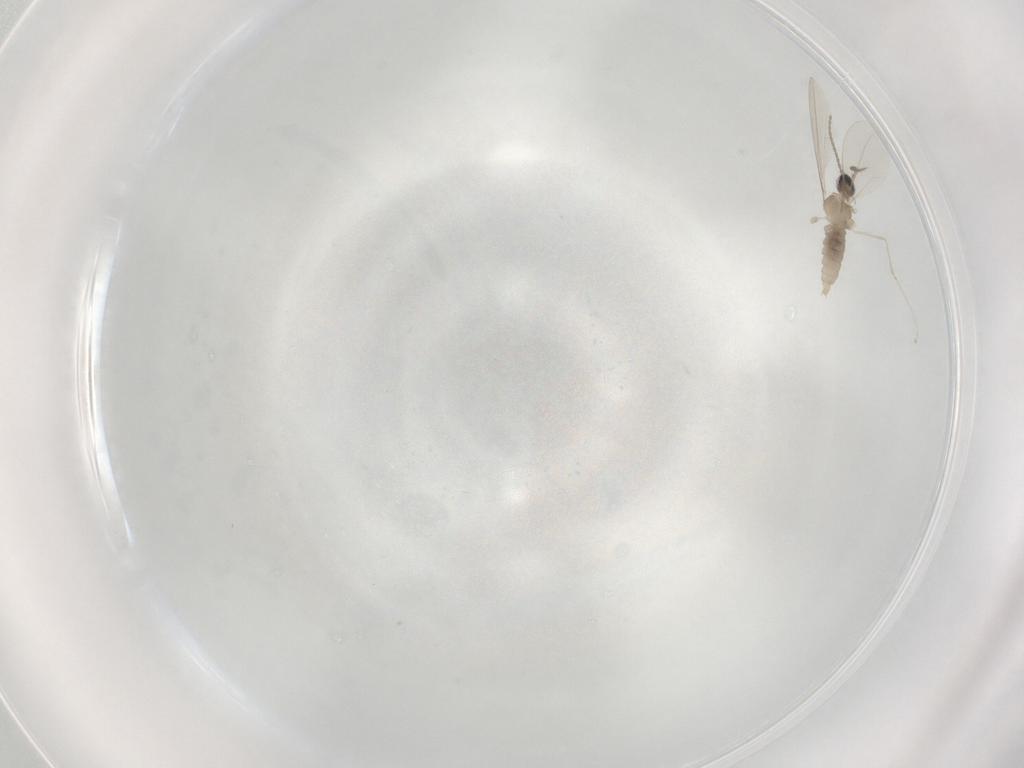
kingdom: Animalia
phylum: Arthropoda
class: Insecta
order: Diptera
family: Cecidomyiidae
